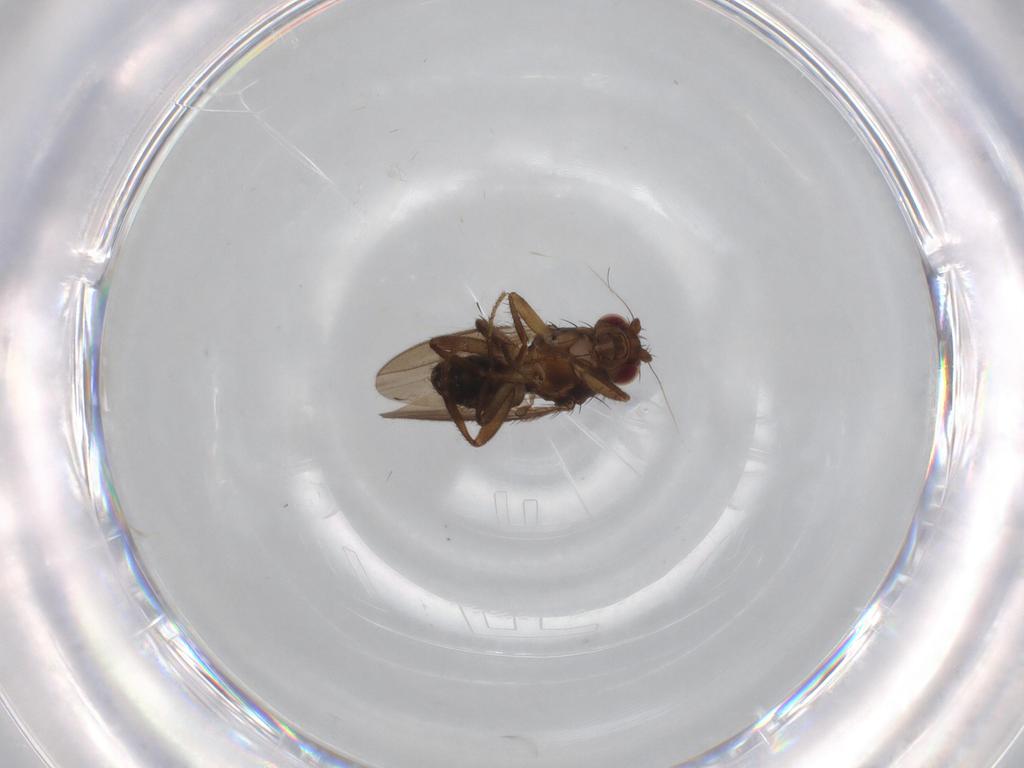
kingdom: Animalia
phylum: Arthropoda
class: Insecta
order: Diptera
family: Sphaeroceridae
